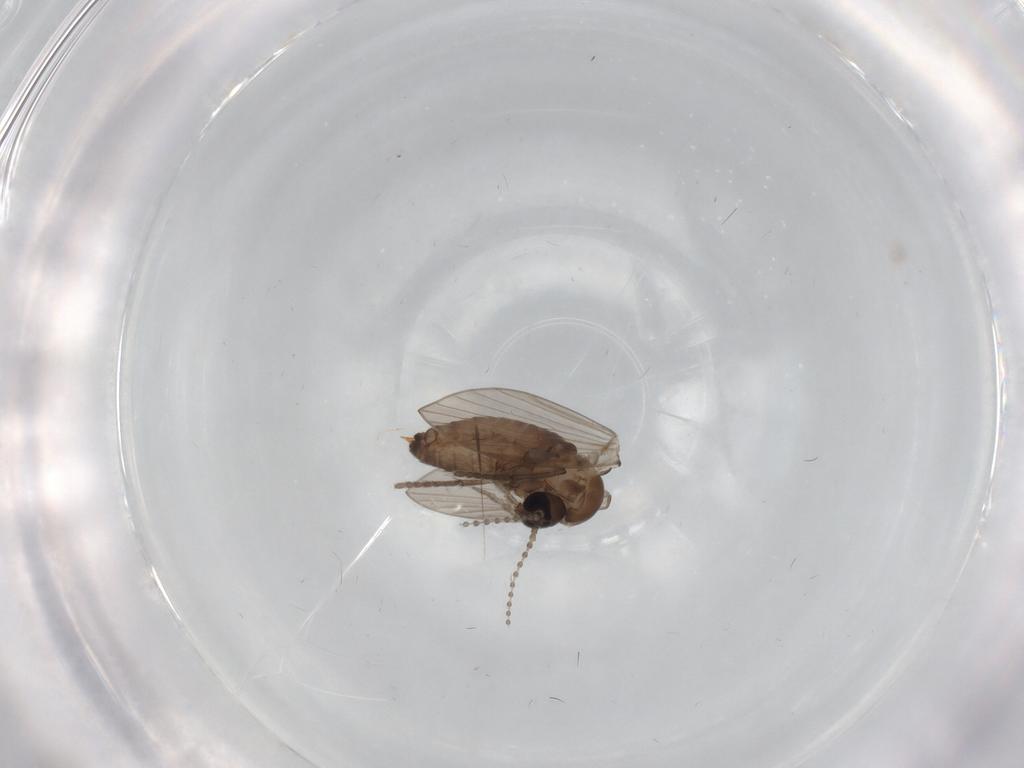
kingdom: Animalia
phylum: Arthropoda
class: Insecta
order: Diptera
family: Psychodidae
